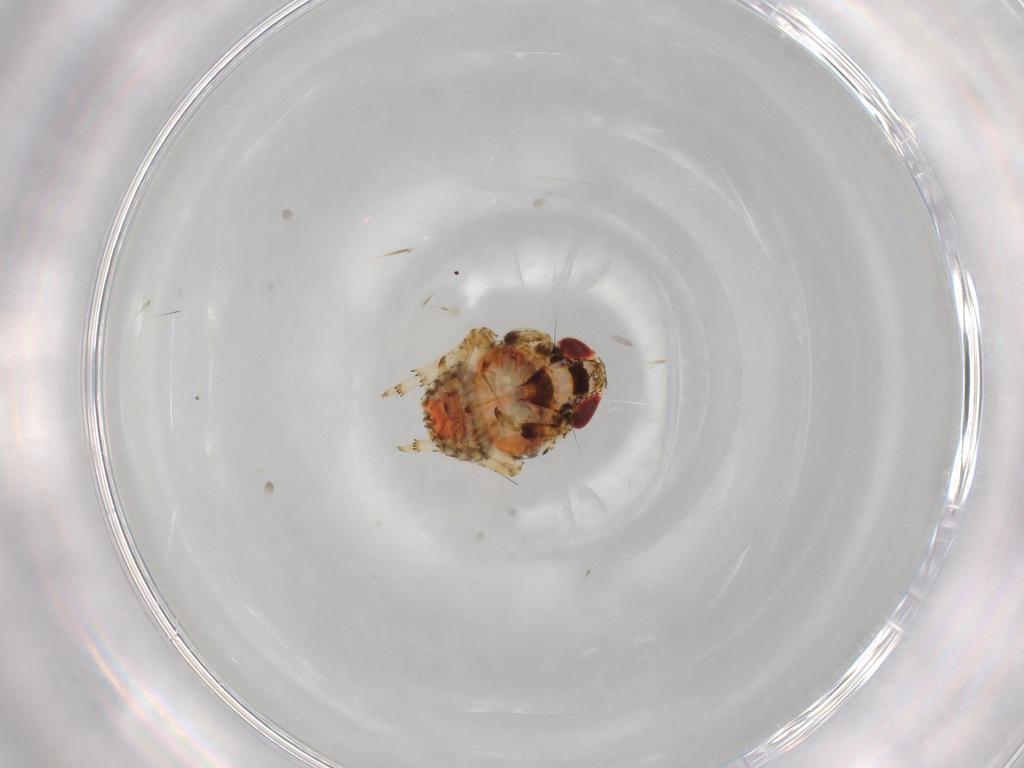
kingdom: Animalia
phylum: Arthropoda
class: Insecta
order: Hemiptera
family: Issidae
